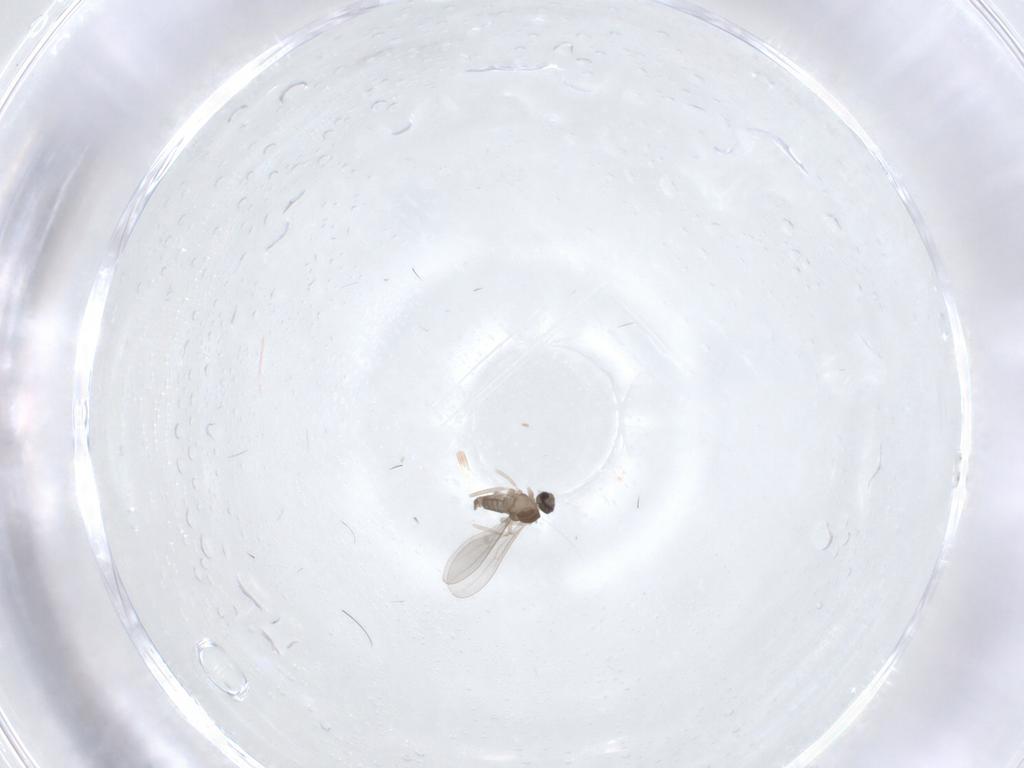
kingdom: Animalia
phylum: Arthropoda
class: Insecta
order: Diptera
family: Cecidomyiidae
